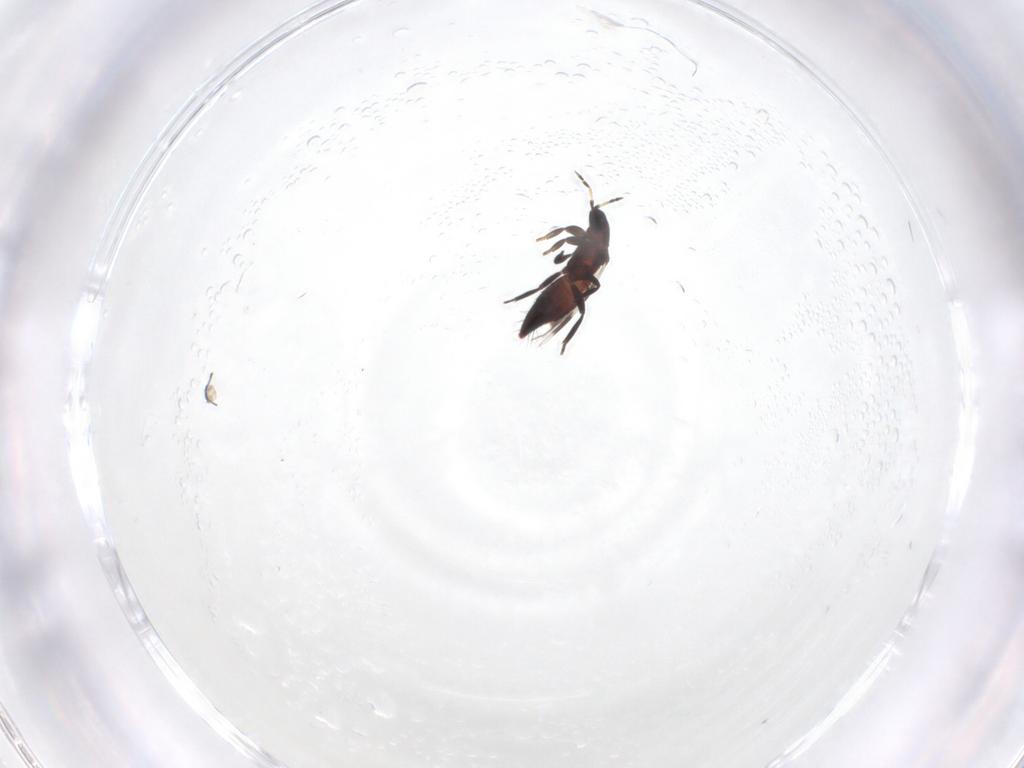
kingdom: Animalia
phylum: Arthropoda
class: Insecta
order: Thysanoptera
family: Aeolothripidae
